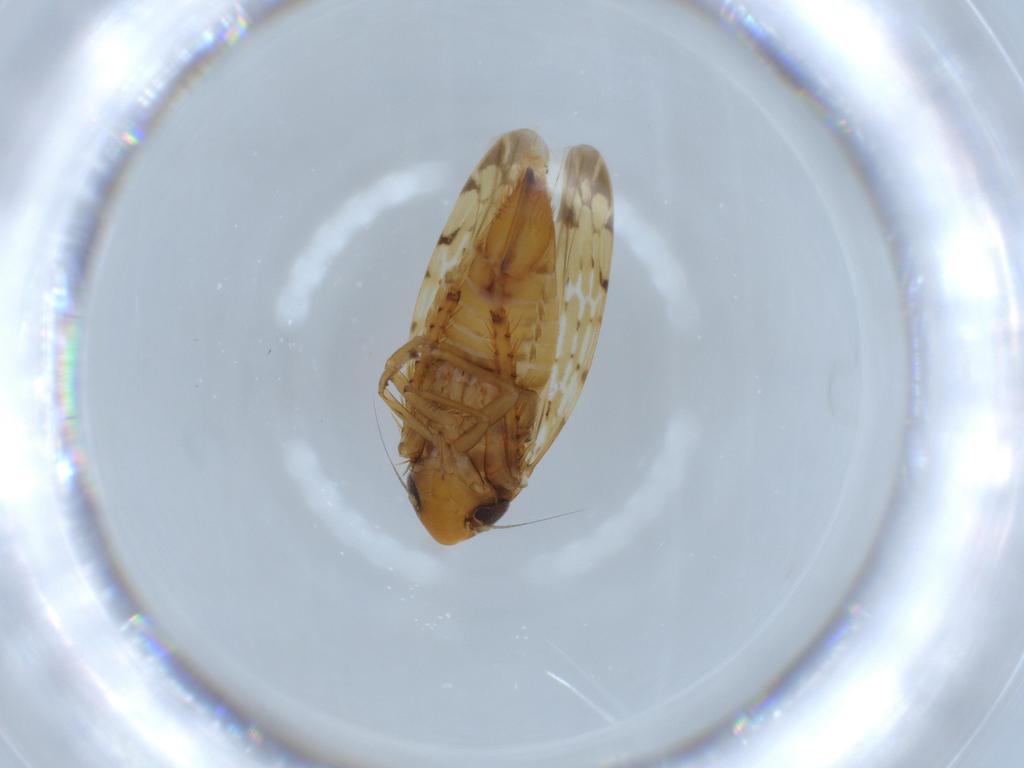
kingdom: Animalia
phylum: Arthropoda
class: Insecta
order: Hemiptera
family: Cicadellidae
